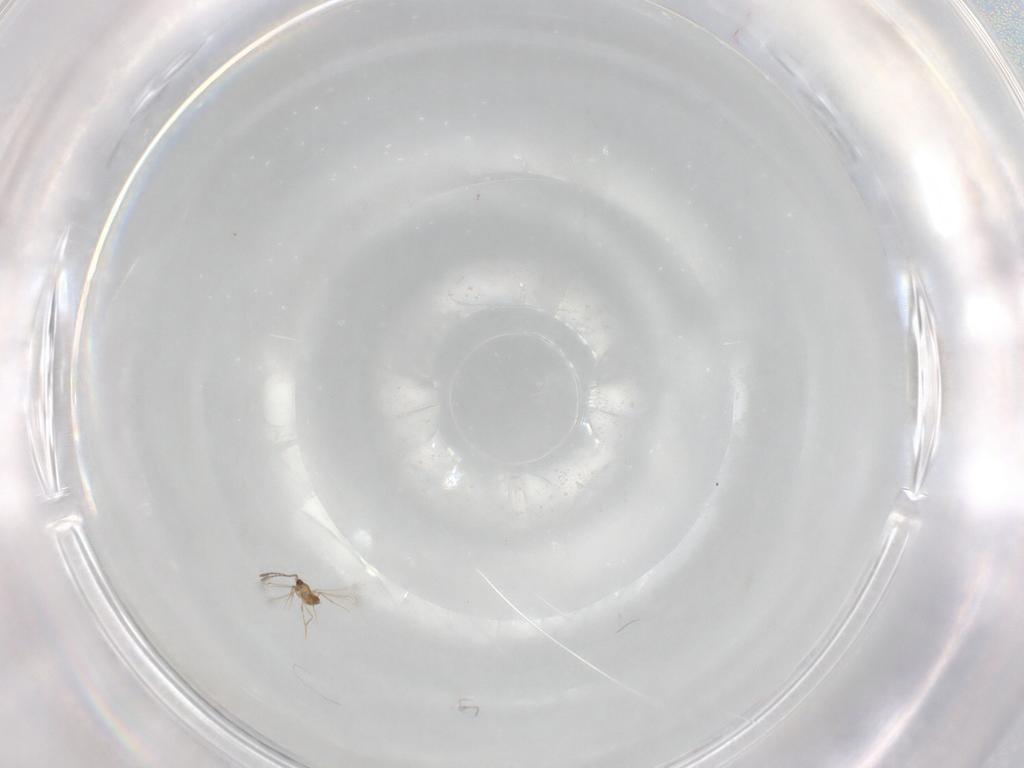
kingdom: Animalia
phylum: Arthropoda
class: Insecta
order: Hymenoptera
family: Mymaridae
